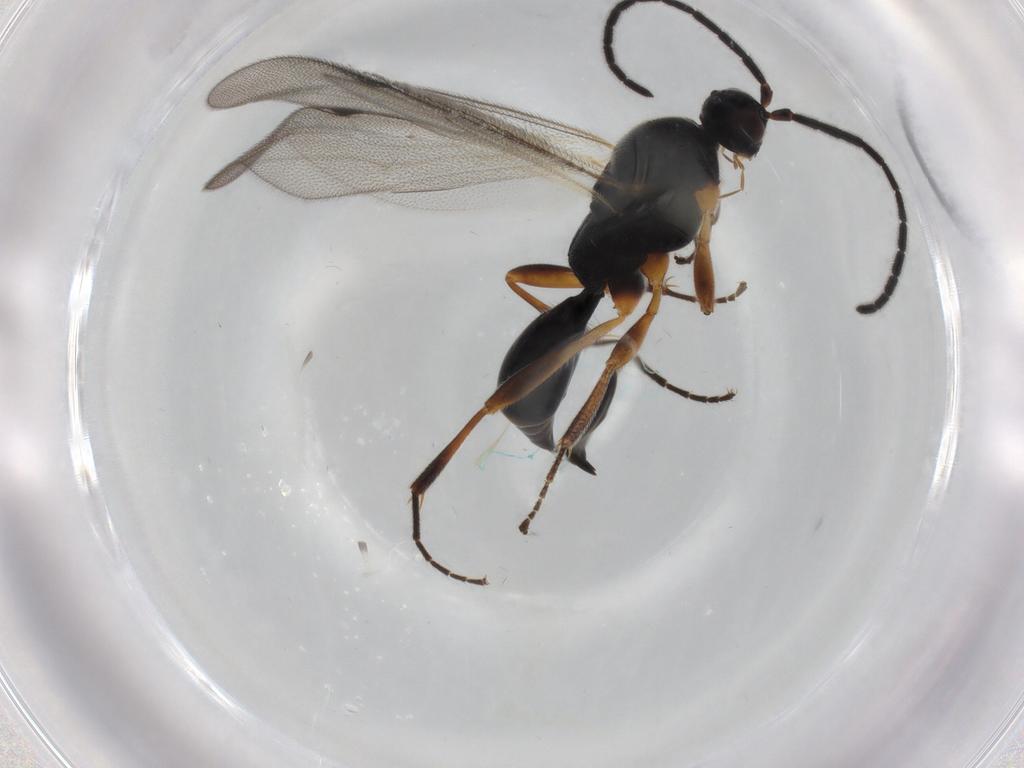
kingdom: Animalia
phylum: Arthropoda
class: Insecta
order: Hymenoptera
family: Proctotrupidae
